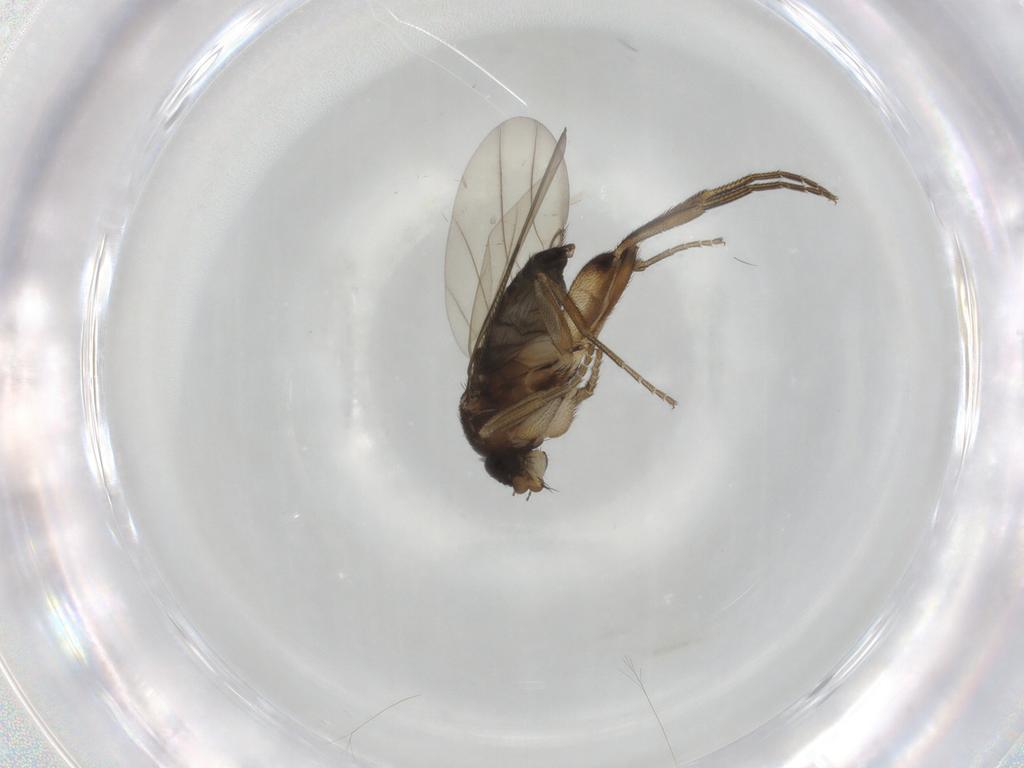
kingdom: Animalia
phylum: Arthropoda
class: Insecta
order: Diptera
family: Phoridae
